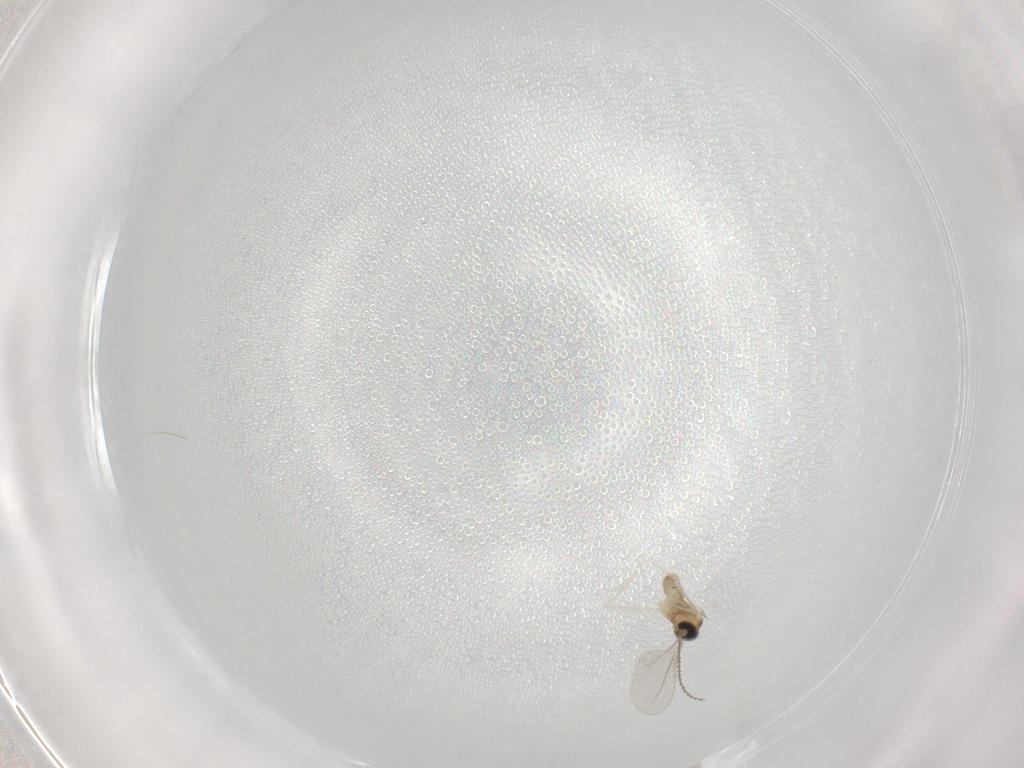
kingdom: Animalia
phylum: Arthropoda
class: Insecta
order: Diptera
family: Cecidomyiidae
